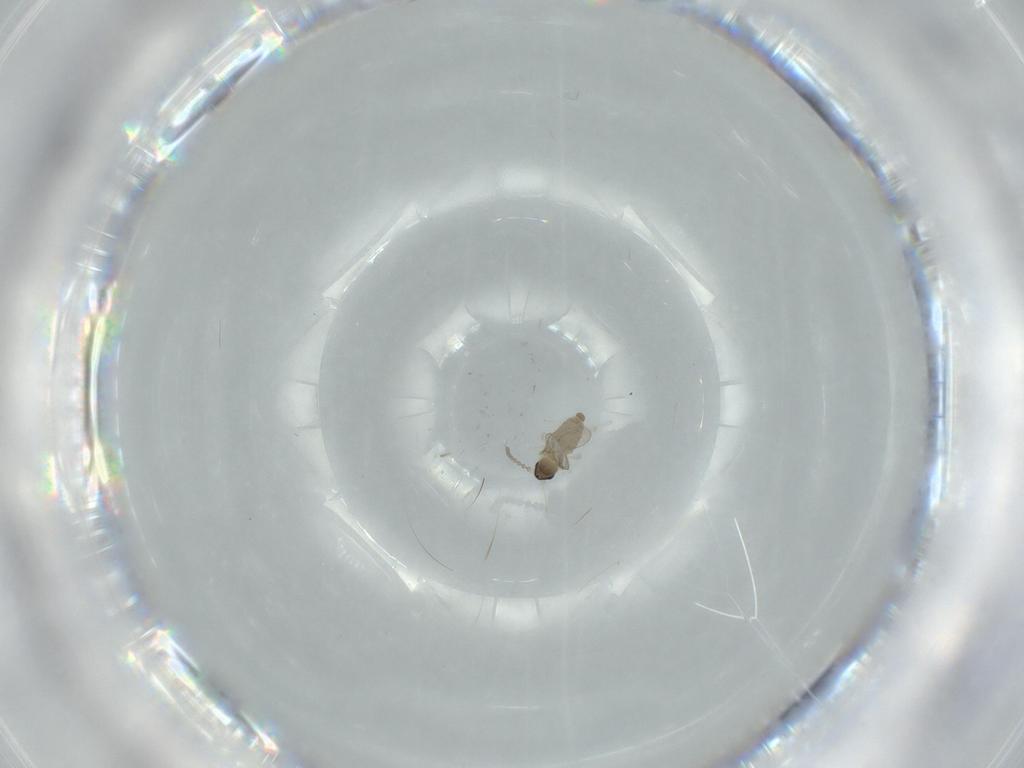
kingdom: Animalia
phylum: Arthropoda
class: Insecta
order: Diptera
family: Cecidomyiidae
